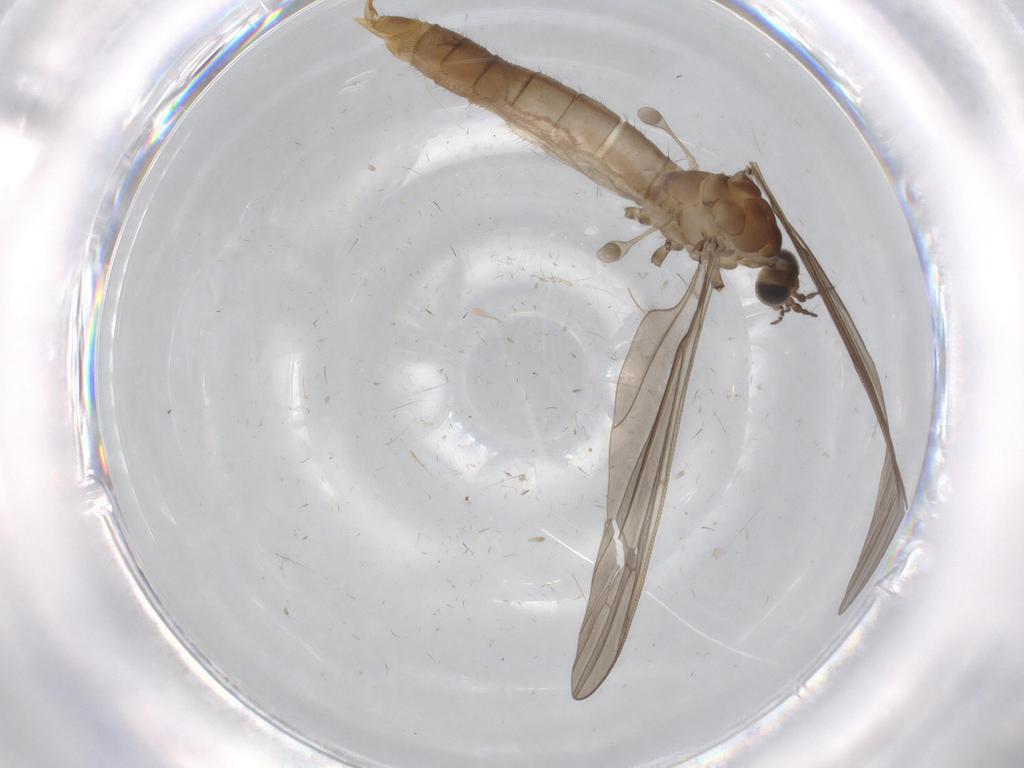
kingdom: Animalia
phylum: Arthropoda
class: Insecta
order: Diptera
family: Limoniidae
